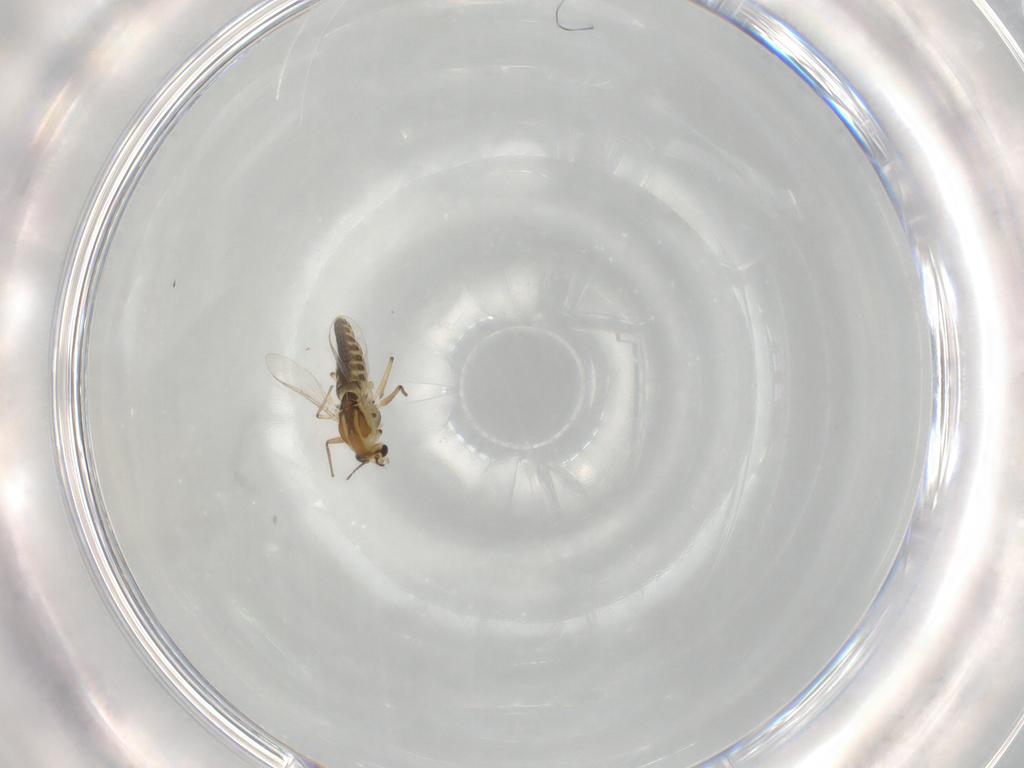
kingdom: Animalia
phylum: Arthropoda
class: Insecta
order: Diptera
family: Chironomidae
